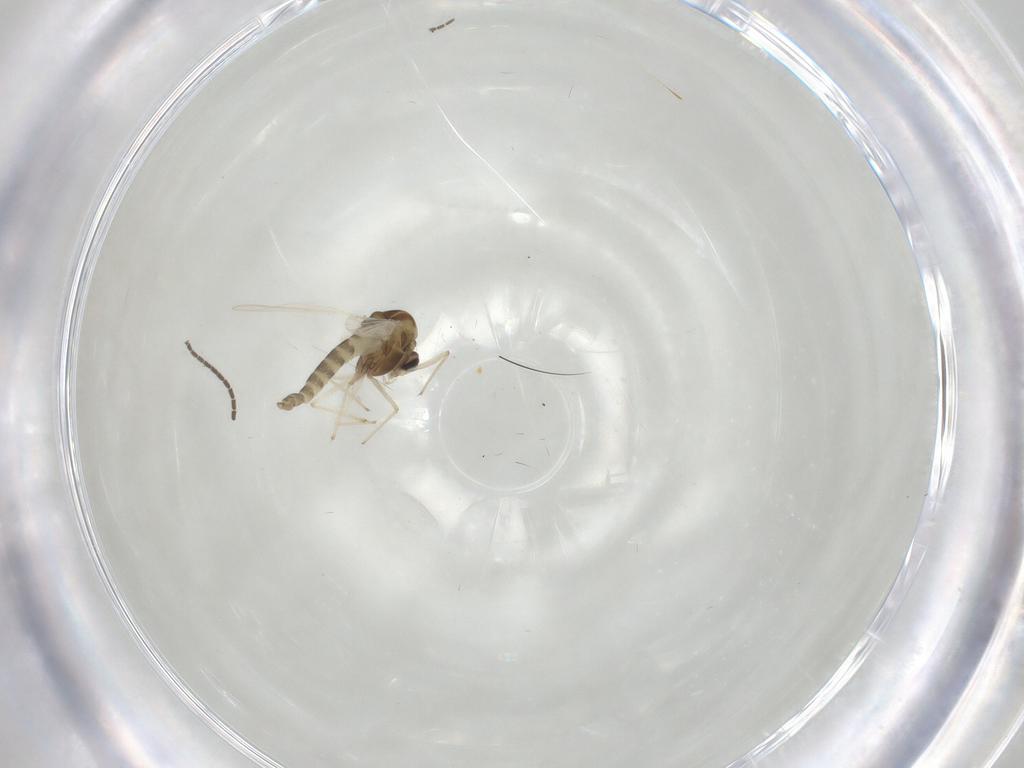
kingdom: Animalia
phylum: Arthropoda
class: Insecta
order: Diptera
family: Chironomidae
